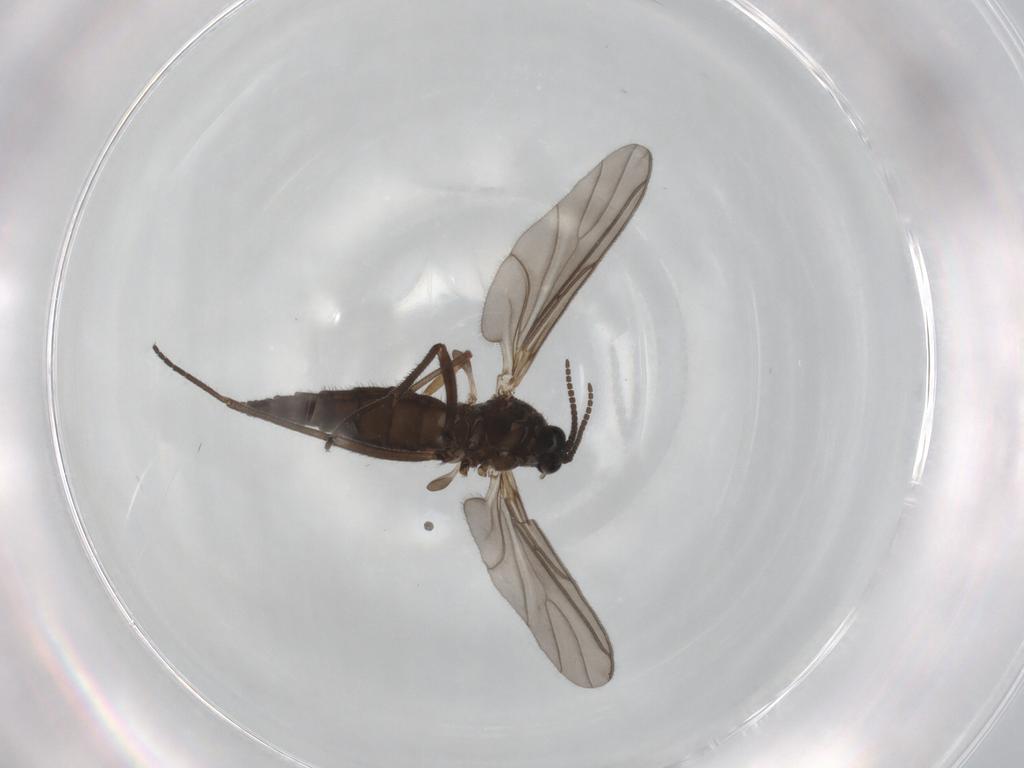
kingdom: Animalia
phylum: Arthropoda
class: Insecta
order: Diptera
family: Sciaridae
